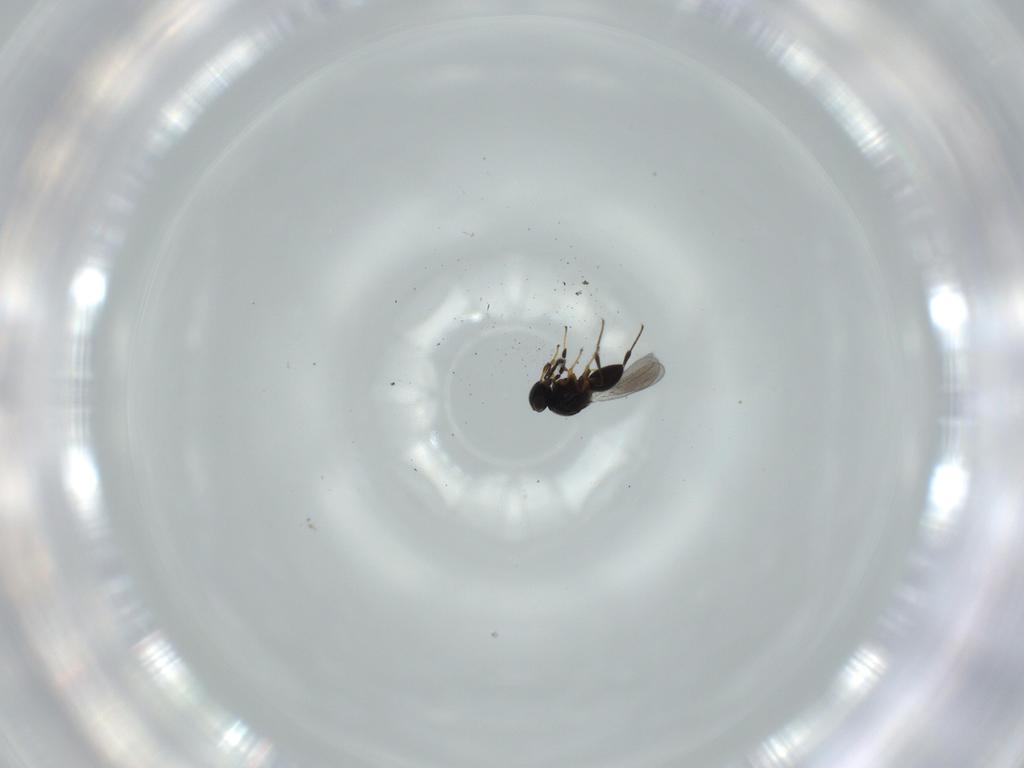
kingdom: Animalia
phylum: Arthropoda
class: Insecta
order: Hymenoptera
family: Platygastridae
